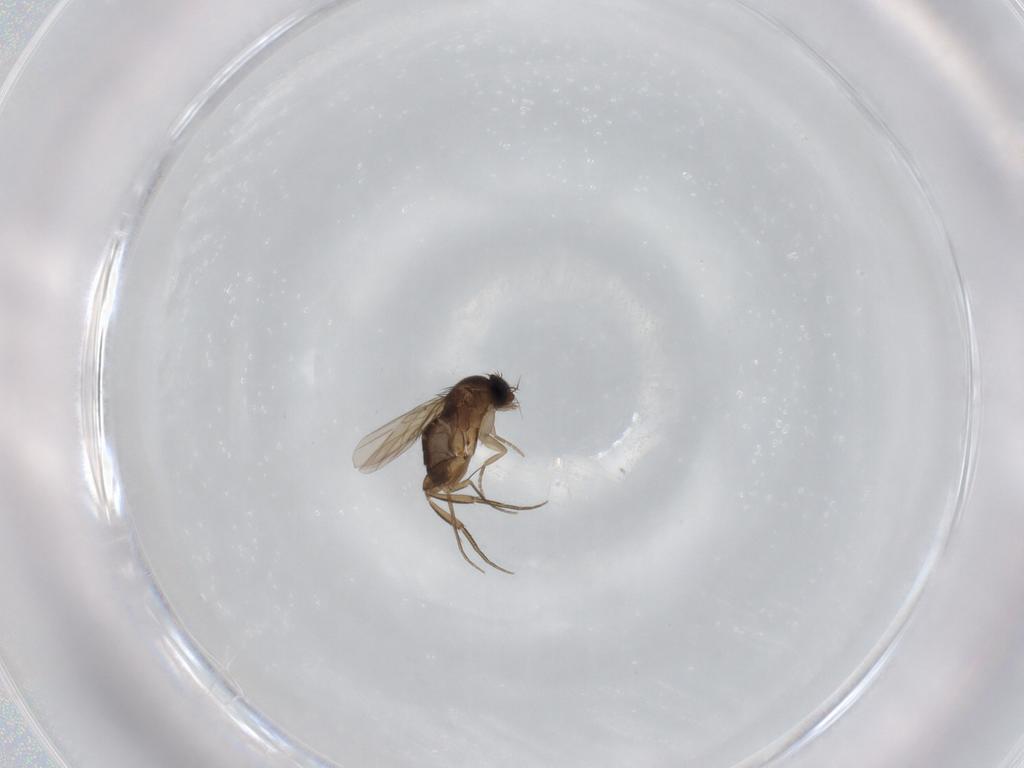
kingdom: Animalia
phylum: Arthropoda
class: Insecta
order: Diptera
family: Phoridae
